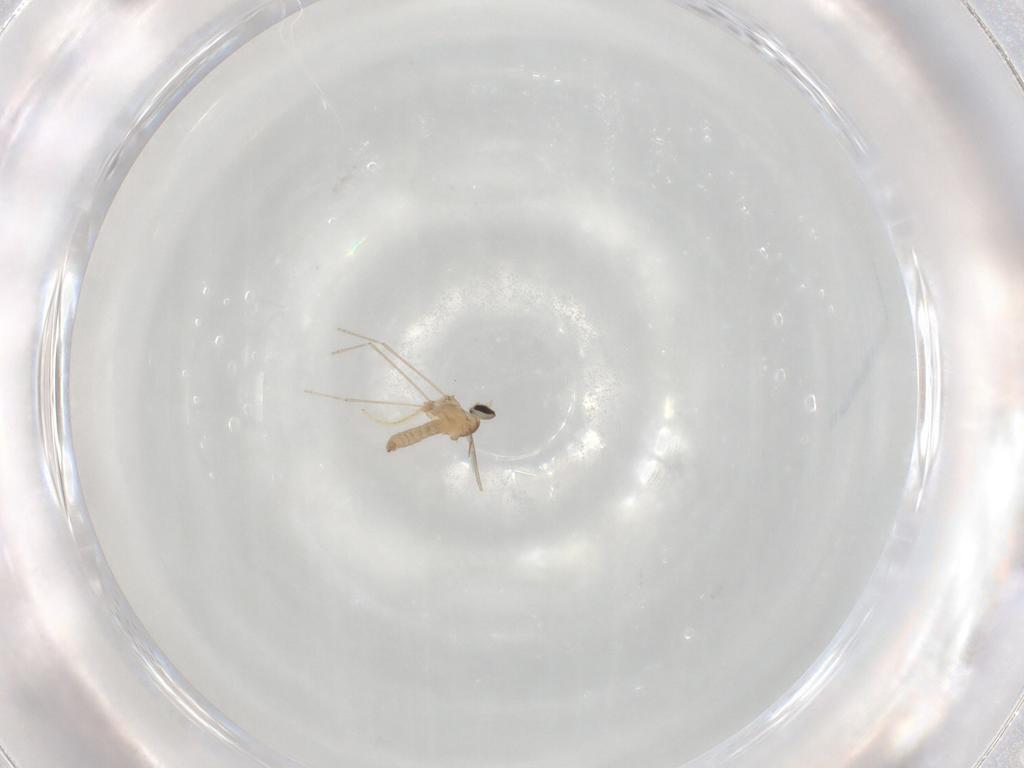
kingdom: Animalia
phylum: Arthropoda
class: Insecta
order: Diptera
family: Chironomidae
